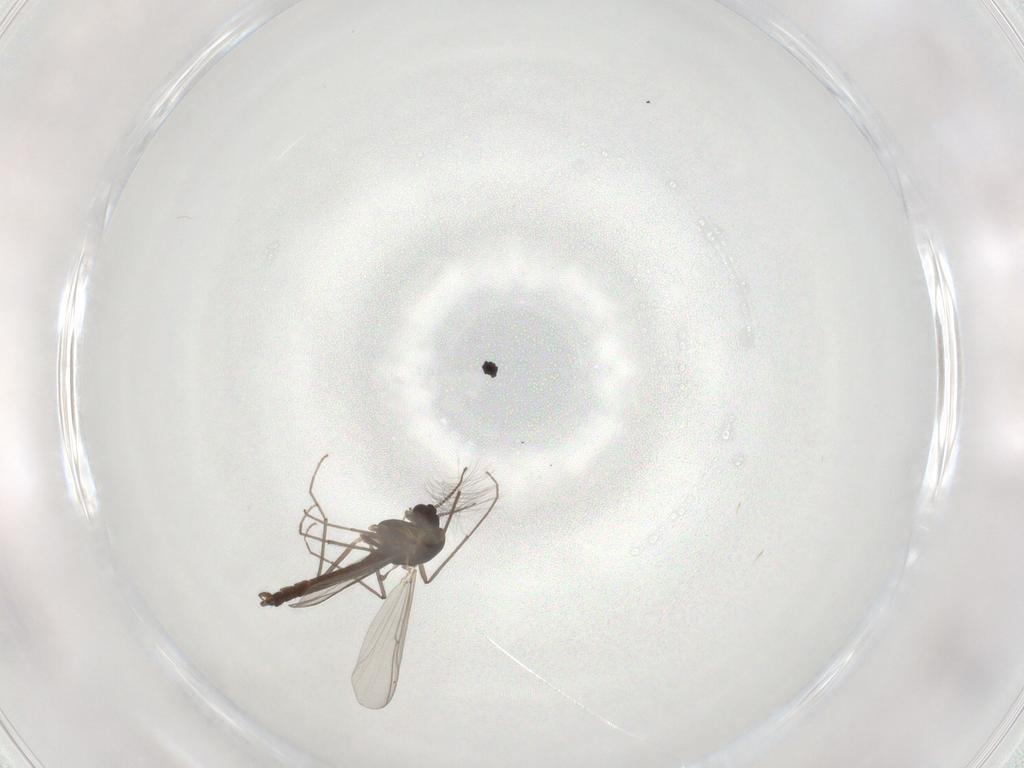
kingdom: Animalia
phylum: Arthropoda
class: Insecta
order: Diptera
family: Chironomidae
